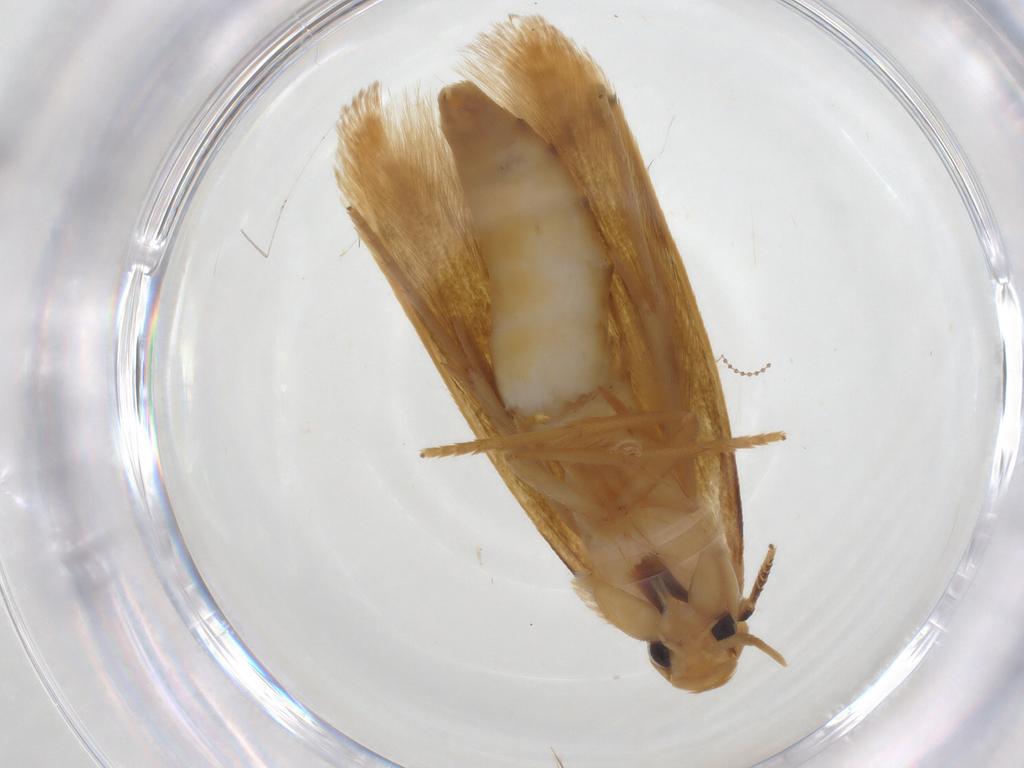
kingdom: Animalia
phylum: Arthropoda
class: Insecta
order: Lepidoptera
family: Tineidae
